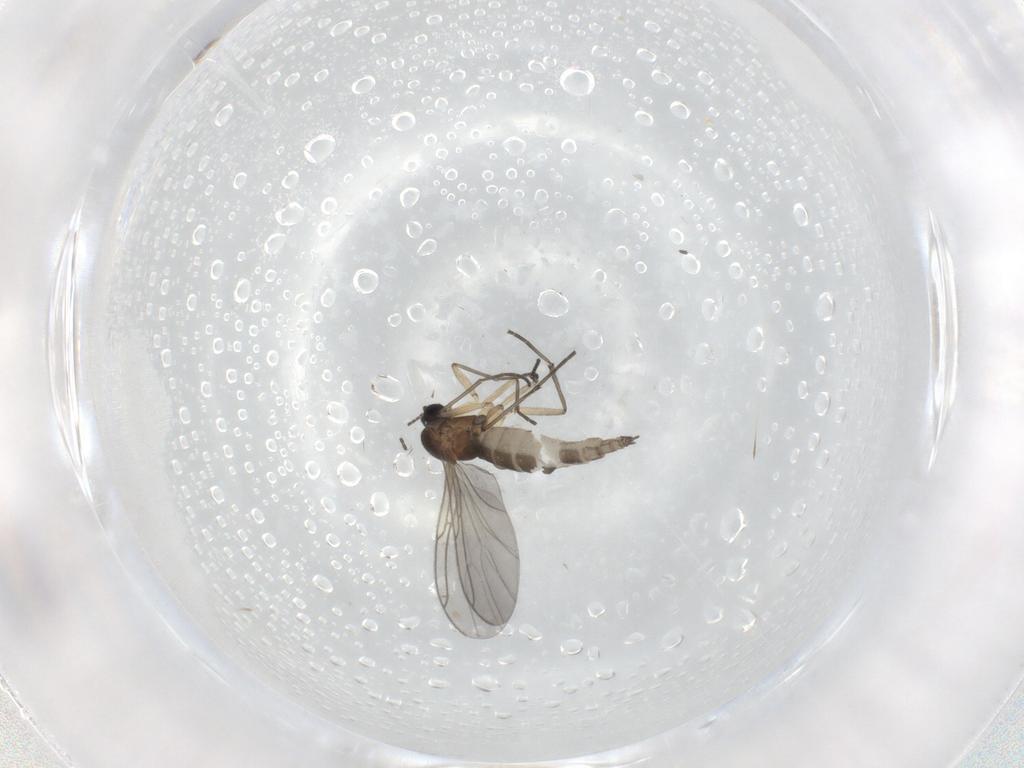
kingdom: Animalia
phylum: Arthropoda
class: Insecta
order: Diptera
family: Sciaridae
